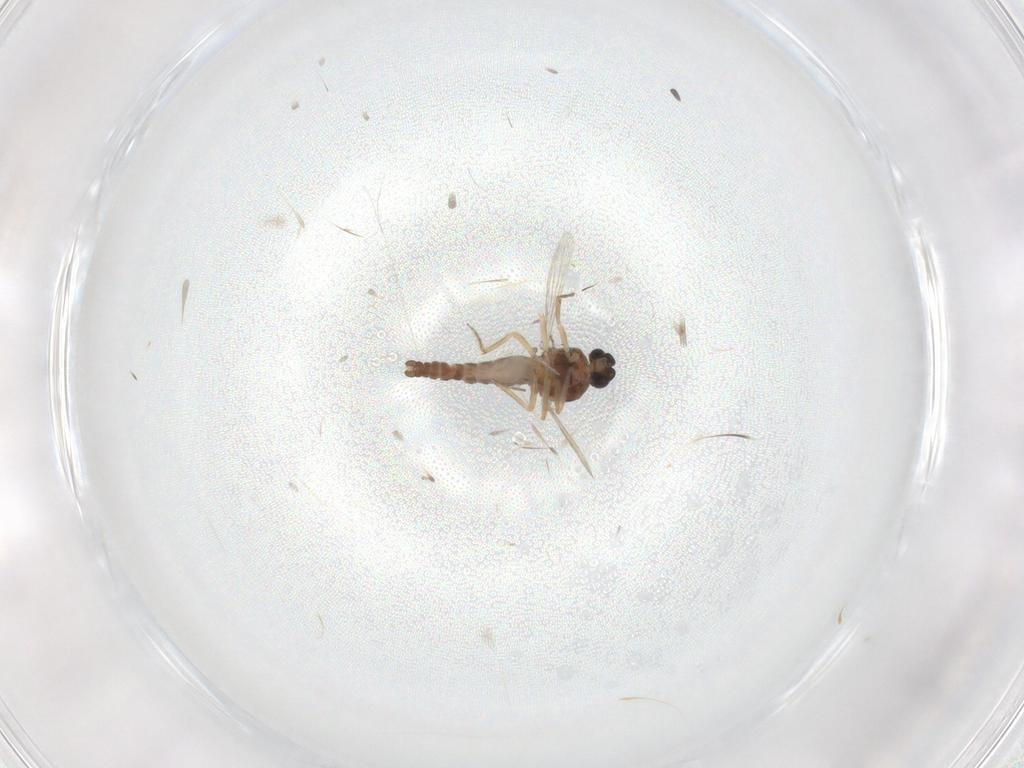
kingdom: Animalia
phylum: Arthropoda
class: Insecta
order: Diptera
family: Ceratopogonidae
